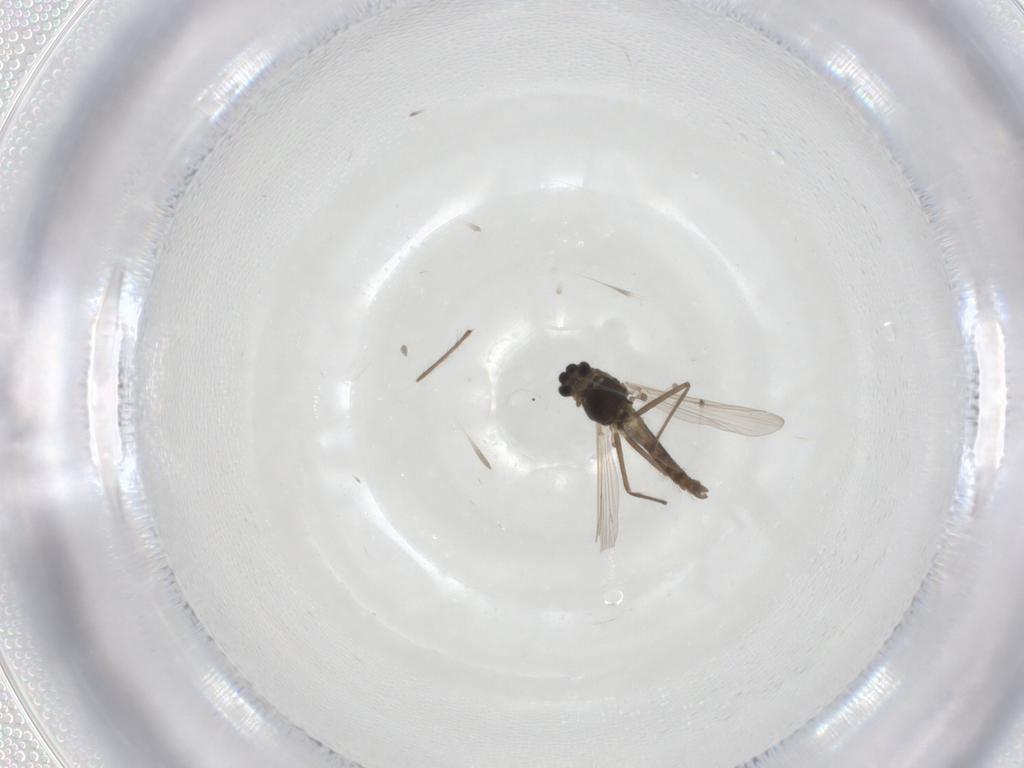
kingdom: Animalia
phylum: Arthropoda
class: Insecta
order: Diptera
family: Chironomidae
